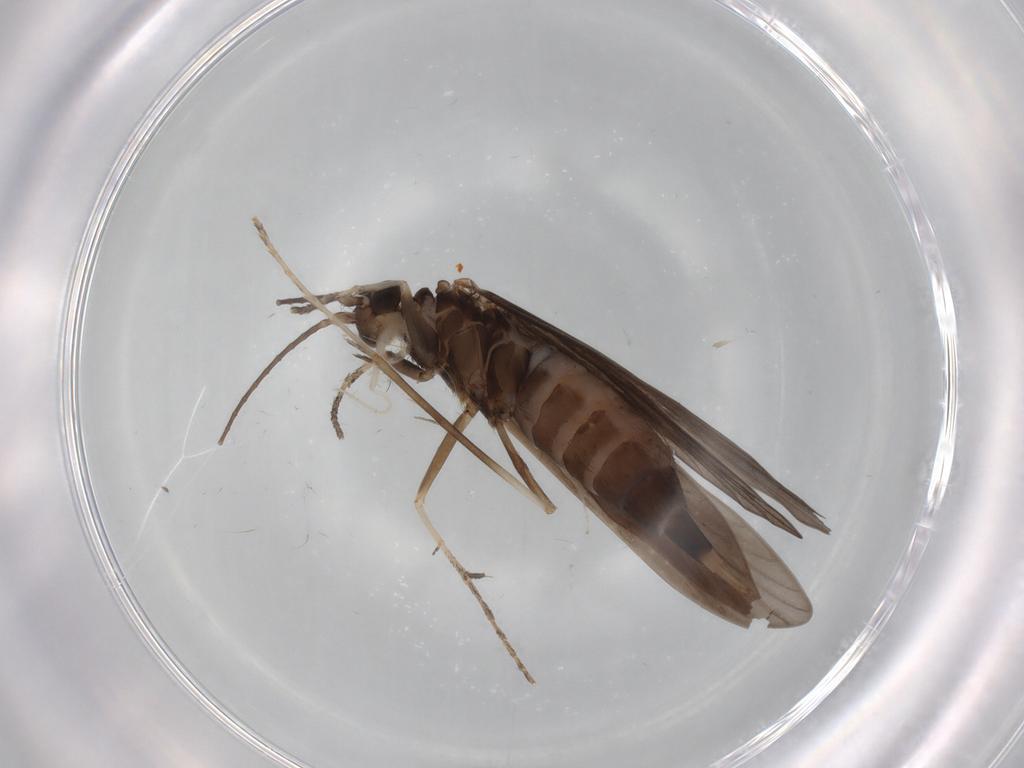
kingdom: Animalia
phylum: Arthropoda
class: Insecta
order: Trichoptera
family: Xiphocentronidae
